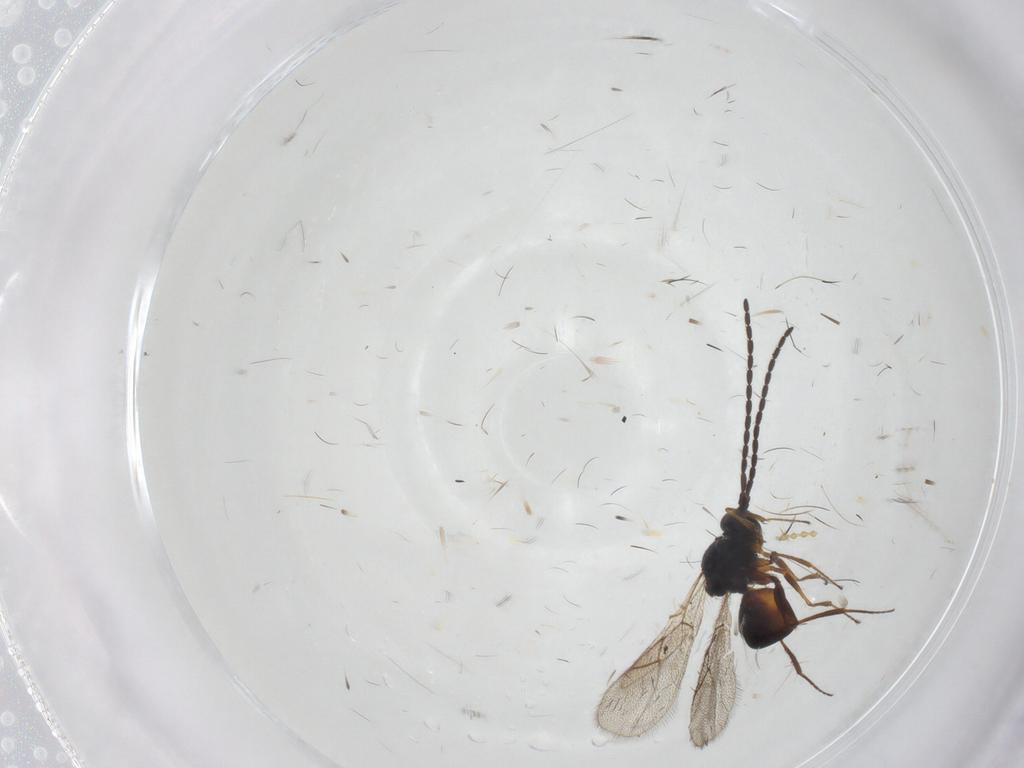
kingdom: Animalia
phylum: Arthropoda
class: Insecta
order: Hymenoptera
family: Figitidae
